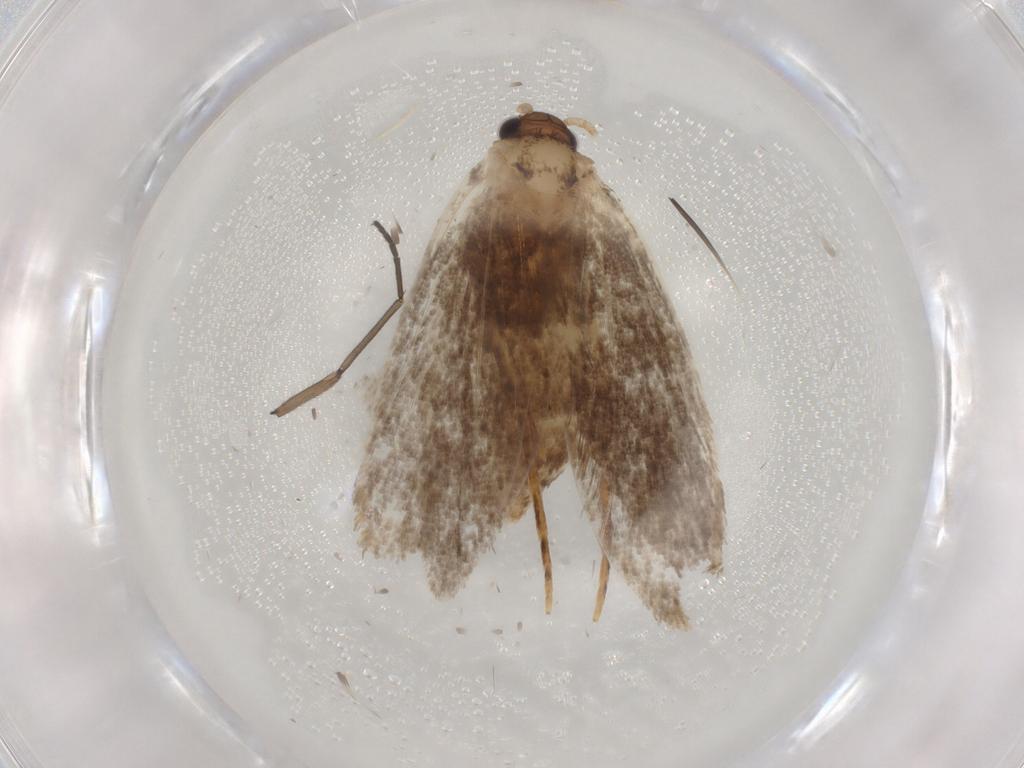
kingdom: Animalia
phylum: Arthropoda
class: Insecta
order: Lepidoptera
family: Tineidae
